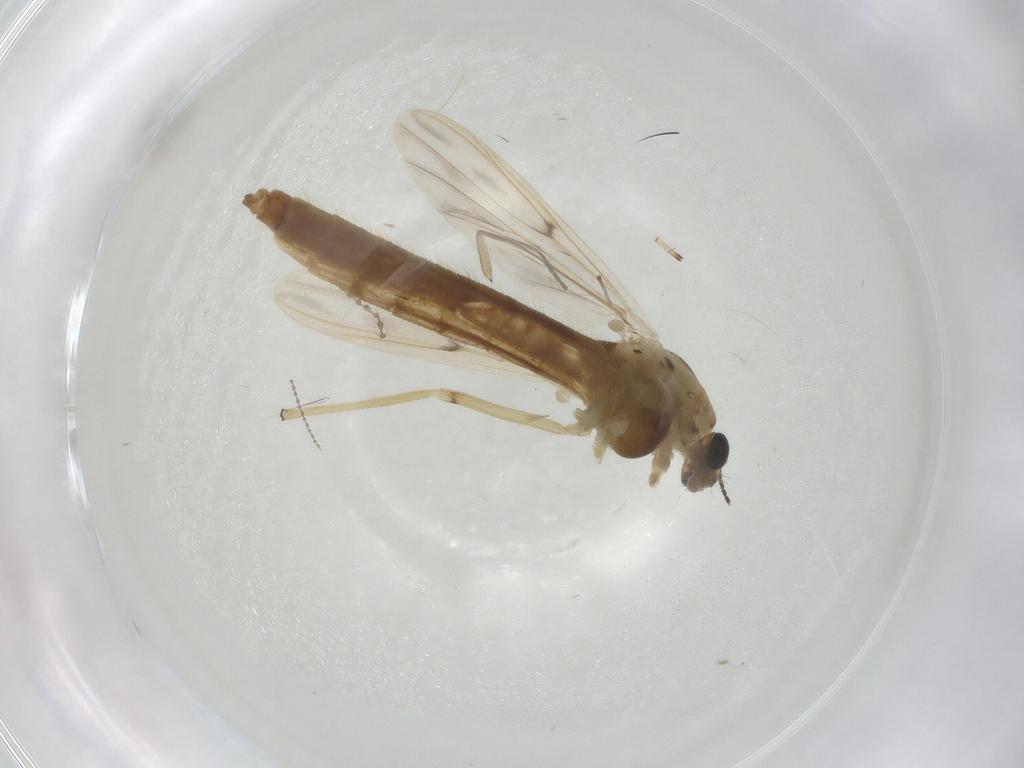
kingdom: Animalia
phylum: Arthropoda
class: Insecta
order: Diptera
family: Chironomidae
